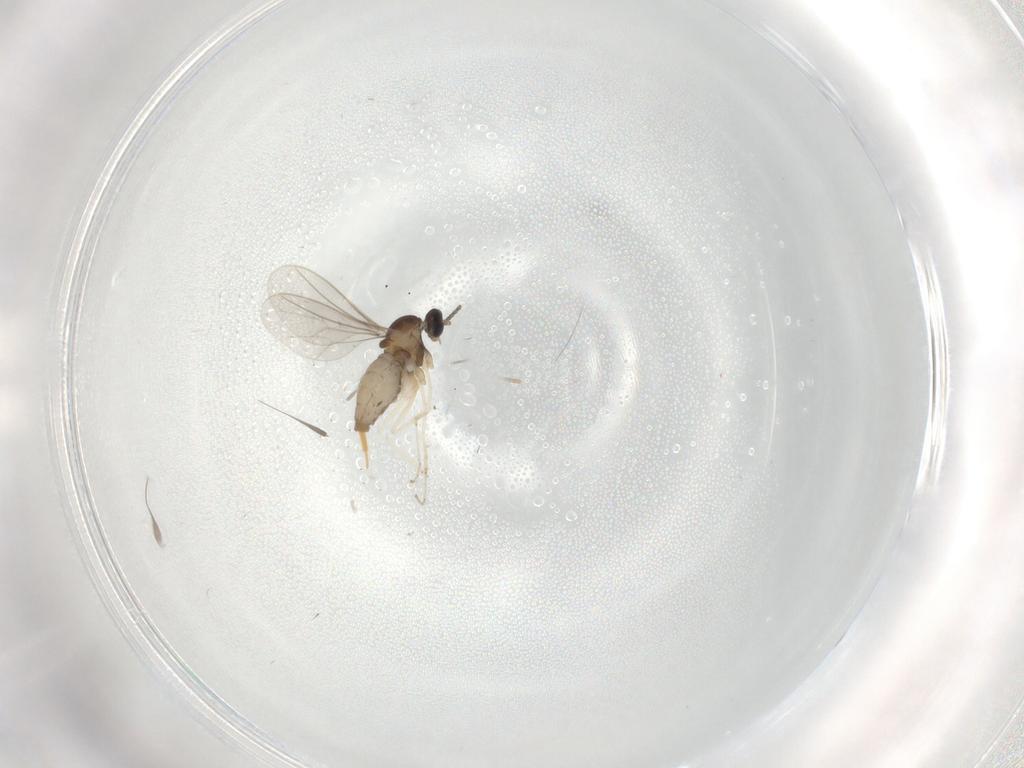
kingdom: Animalia
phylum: Arthropoda
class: Insecta
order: Diptera
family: Cecidomyiidae
